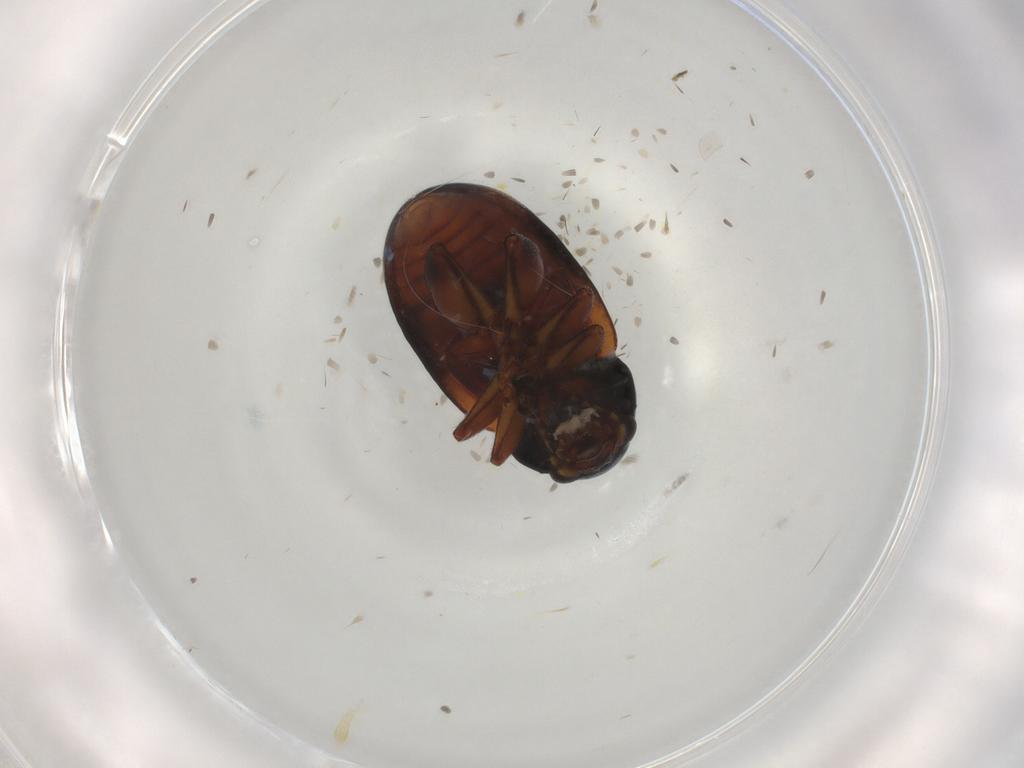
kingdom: Animalia
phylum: Arthropoda
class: Insecta
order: Coleoptera
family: Chrysomelidae
